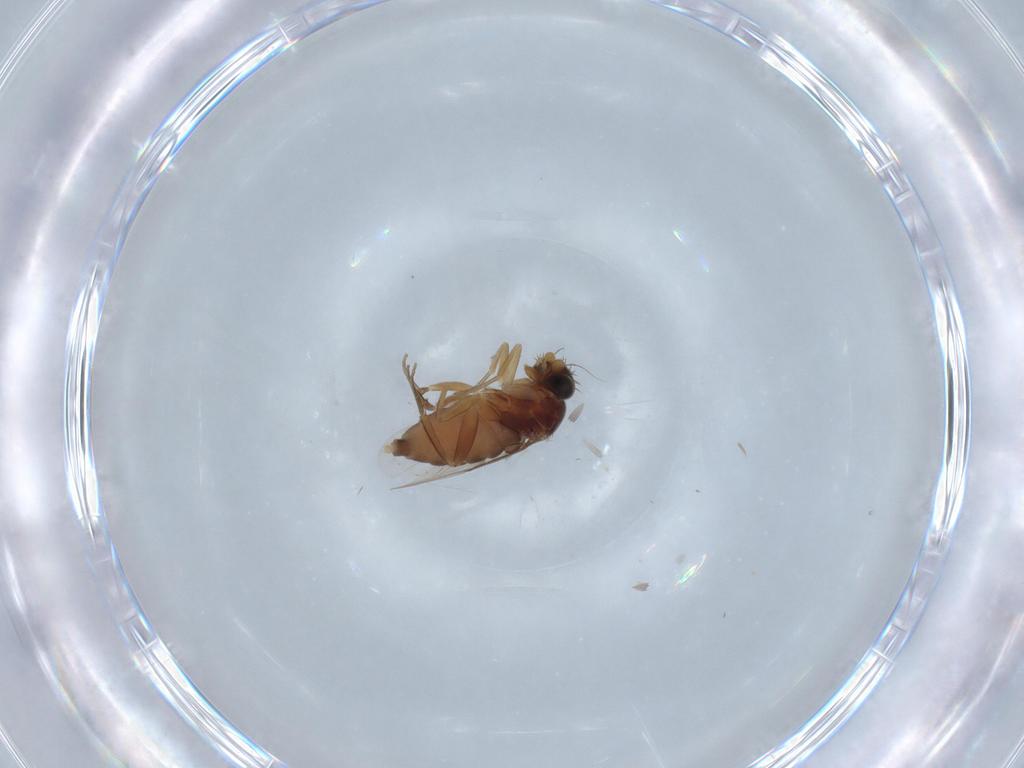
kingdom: Animalia
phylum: Arthropoda
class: Insecta
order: Diptera
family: Phoridae
